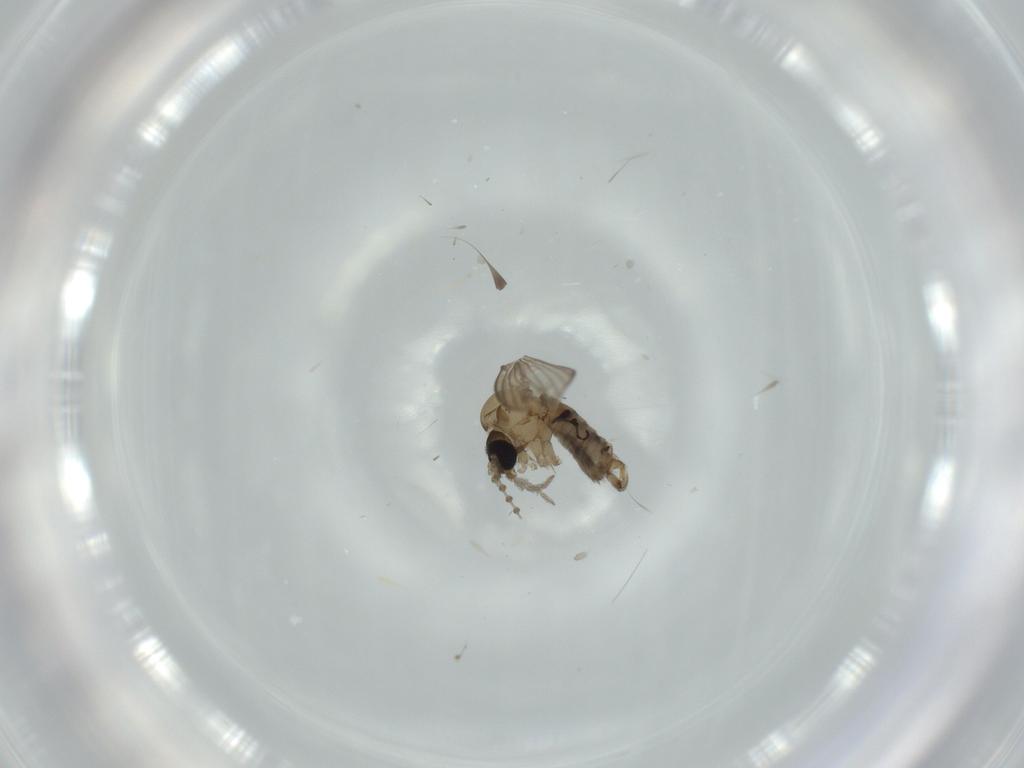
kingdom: Animalia
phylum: Arthropoda
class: Insecta
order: Diptera
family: Psychodidae
